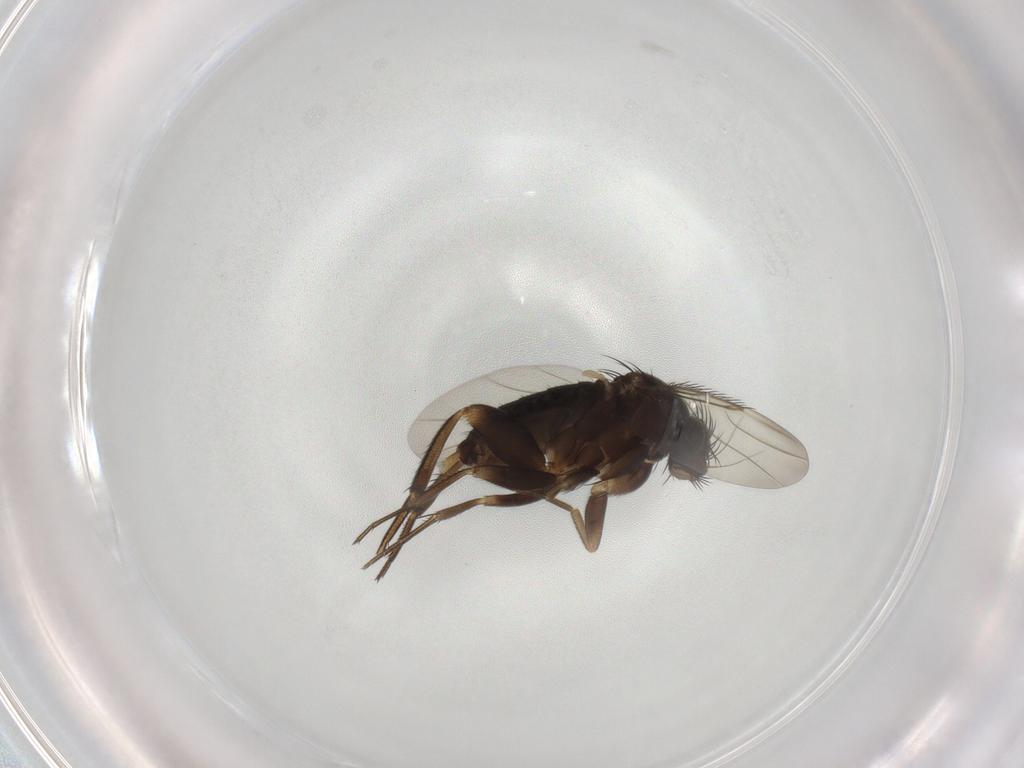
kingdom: Animalia
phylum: Arthropoda
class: Insecta
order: Diptera
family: Phoridae
